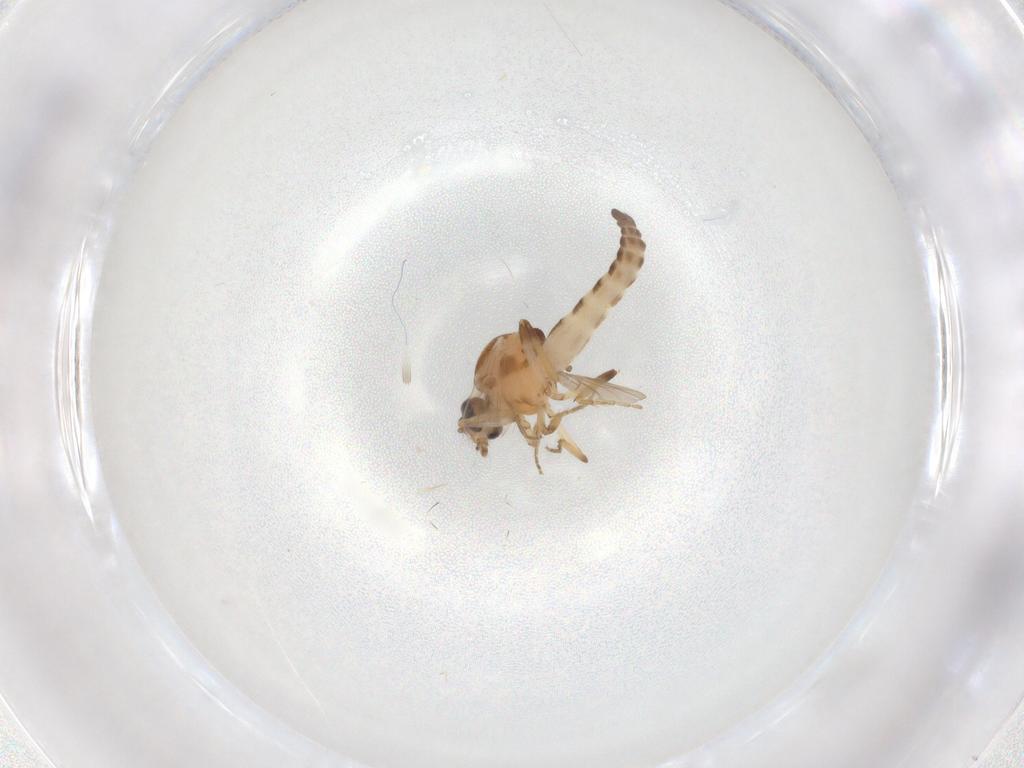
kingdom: Animalia
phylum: Arthropoda
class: Insecta
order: Diptera
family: Ceratopogonidae
